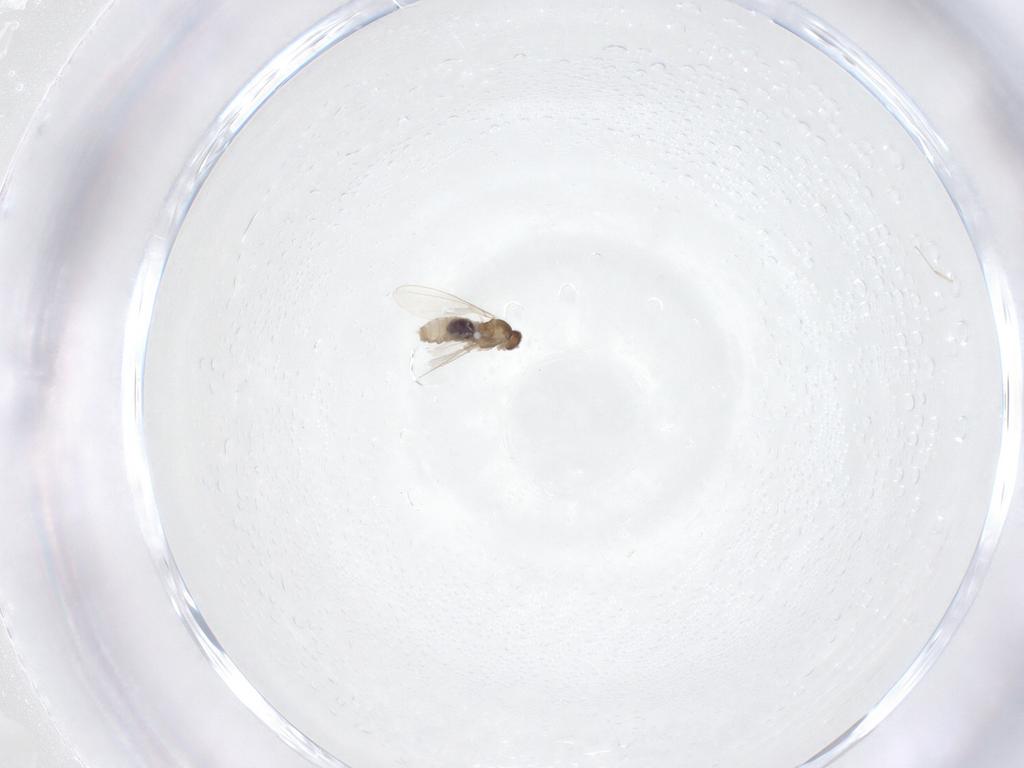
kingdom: Animalia
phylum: Arthropoda
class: Insecta
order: Diptera
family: Cecidomyiidae
